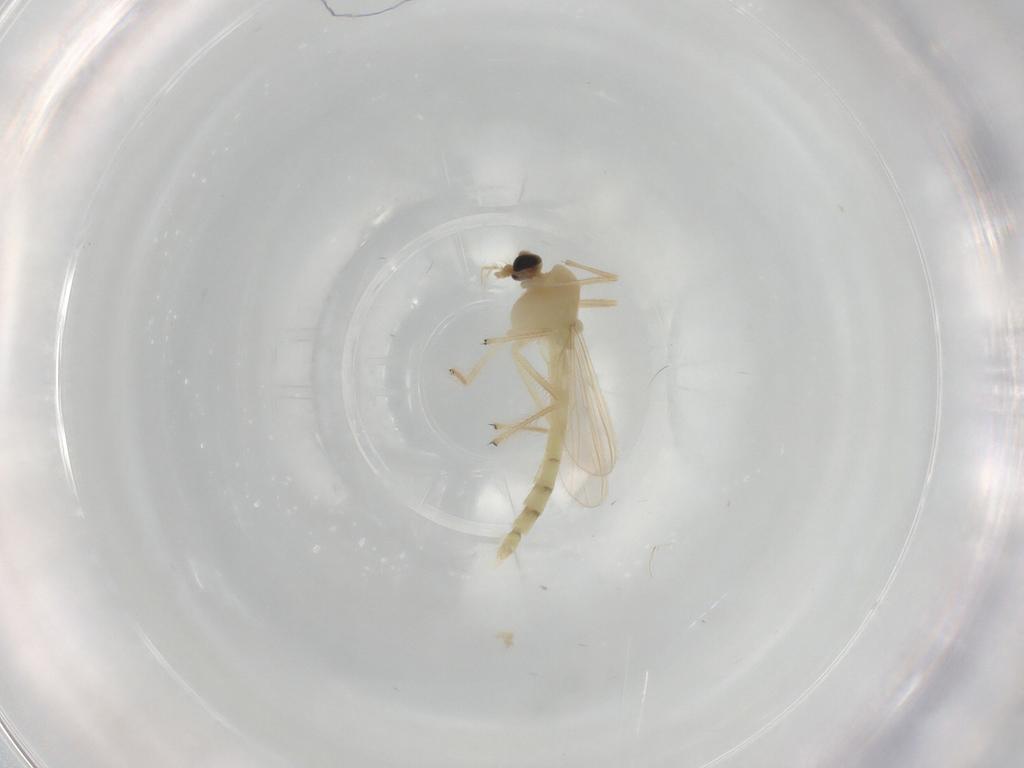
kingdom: Animalia
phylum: Arthropoda
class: Insecta
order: Diptera
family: Chironomidae
